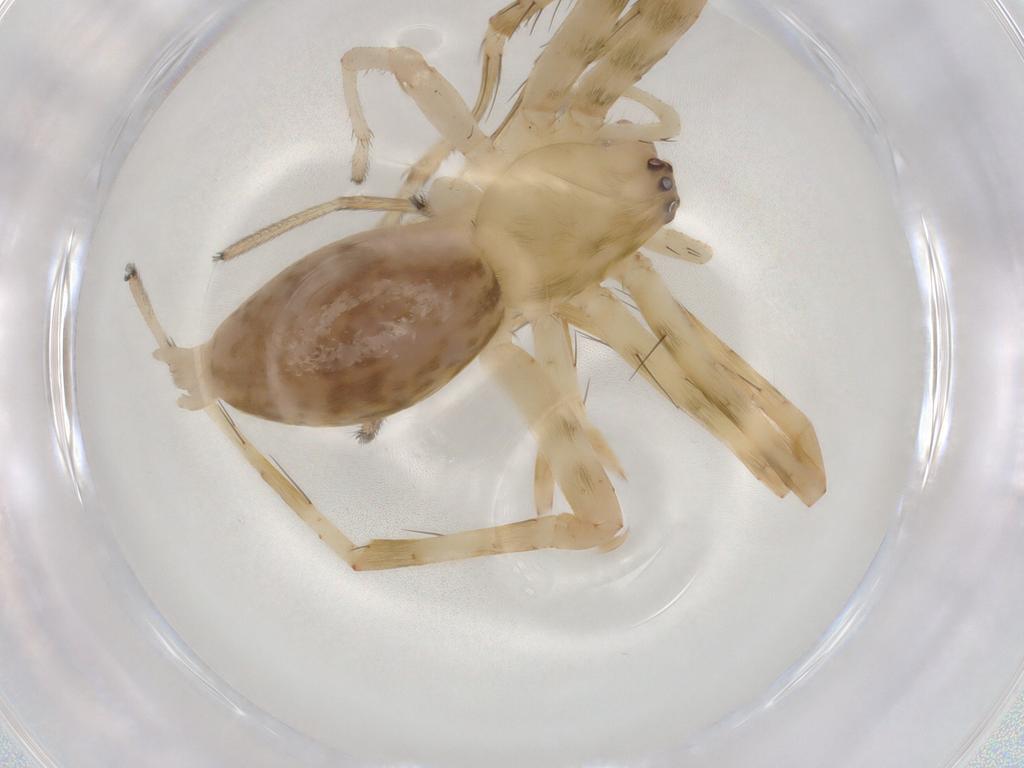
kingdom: Animalia
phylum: Arthropoda
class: Arachnida
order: Araneae
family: Anyphaenidae
